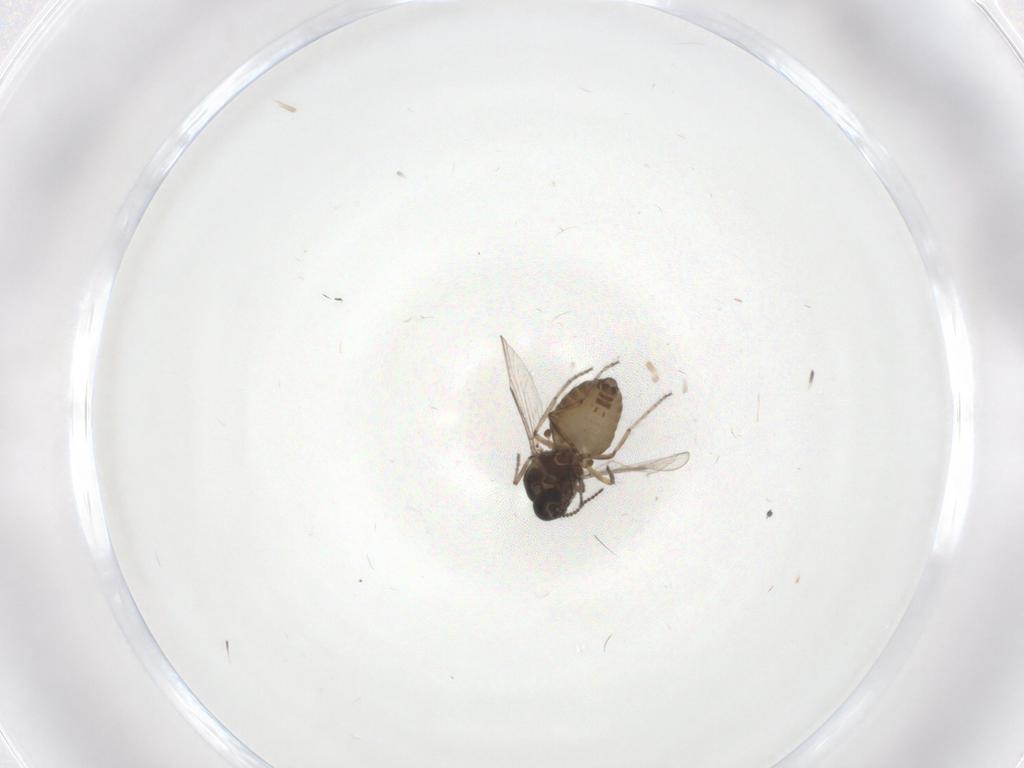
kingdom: Animalia
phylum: Arthropoda
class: Insecta
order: Diptera
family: Ceratopogonidae
